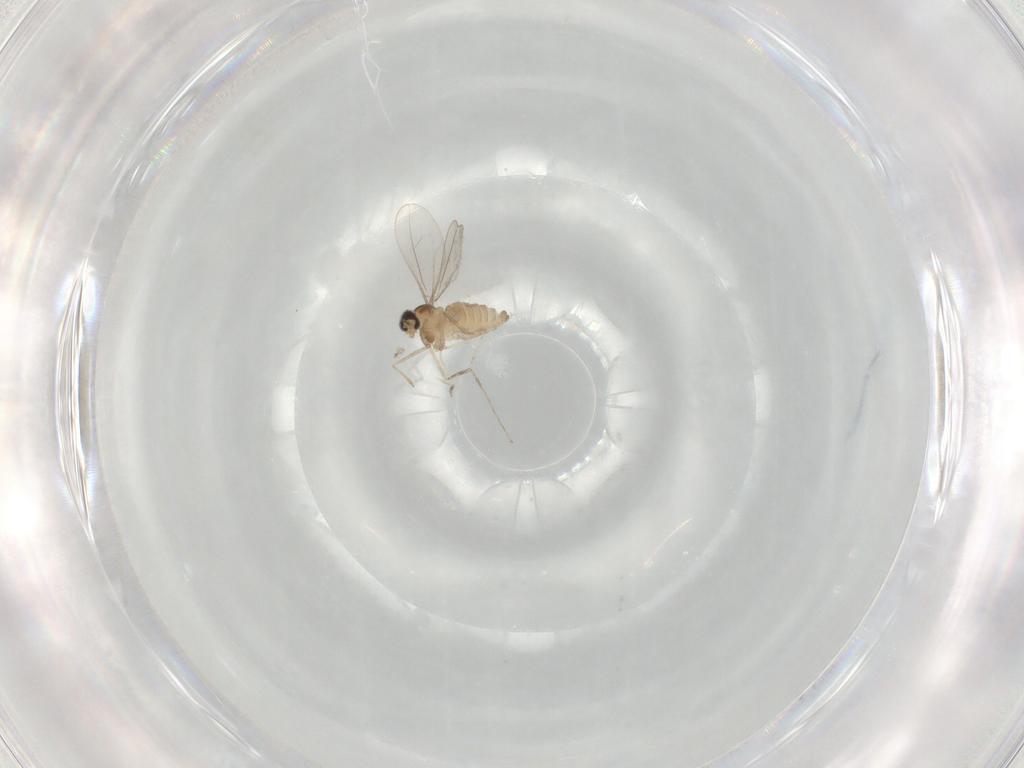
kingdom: Animalia
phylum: Arthropoda
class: Insecta
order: Diptera
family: Cecidomyiidae
